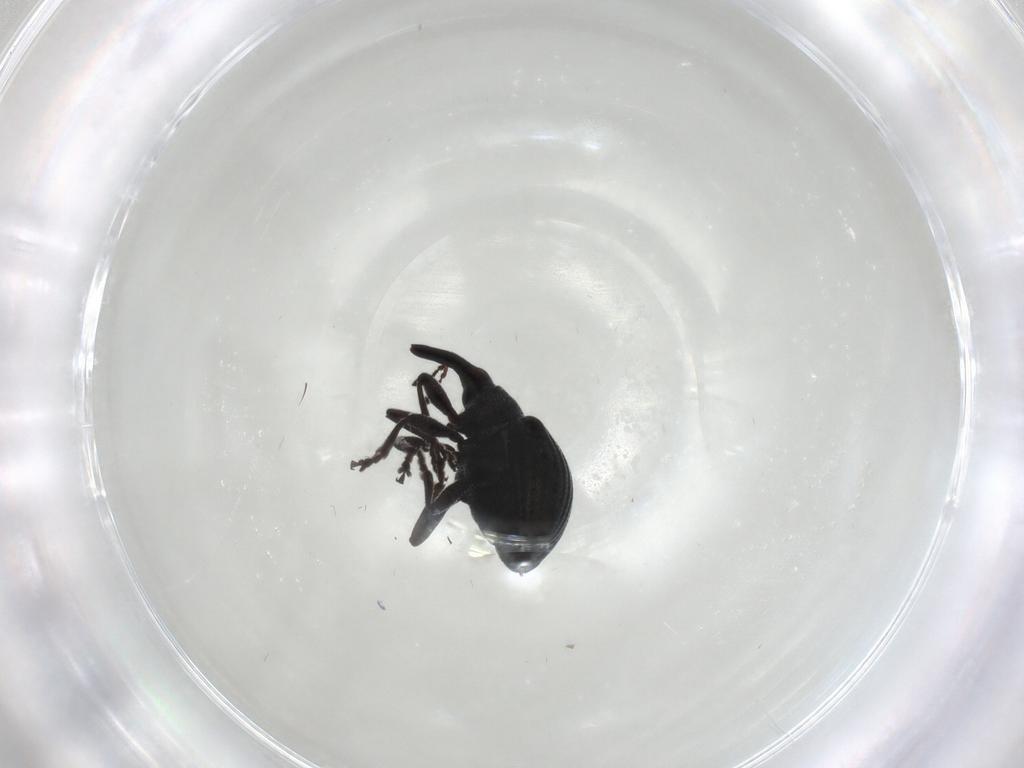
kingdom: Animalia
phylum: Arthropoda
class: Insecta
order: Coleoptera
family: Brentidae
